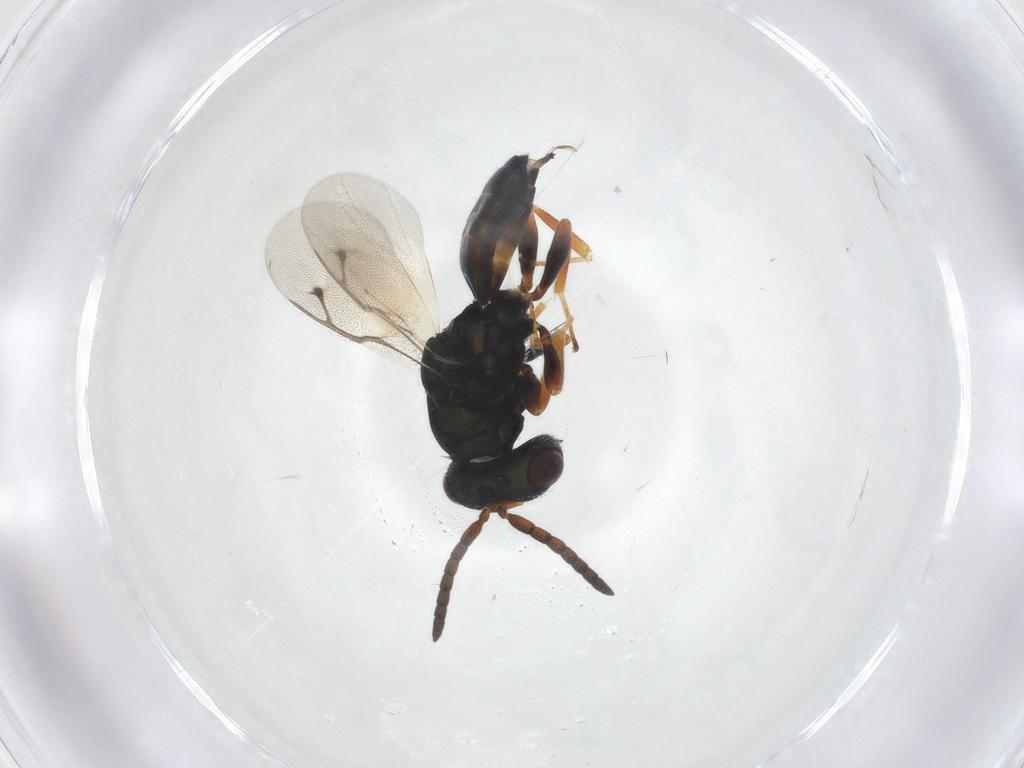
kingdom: Animalia
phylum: Arthropoda
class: Insecta
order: Hymenoptera
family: Pteromalidae
